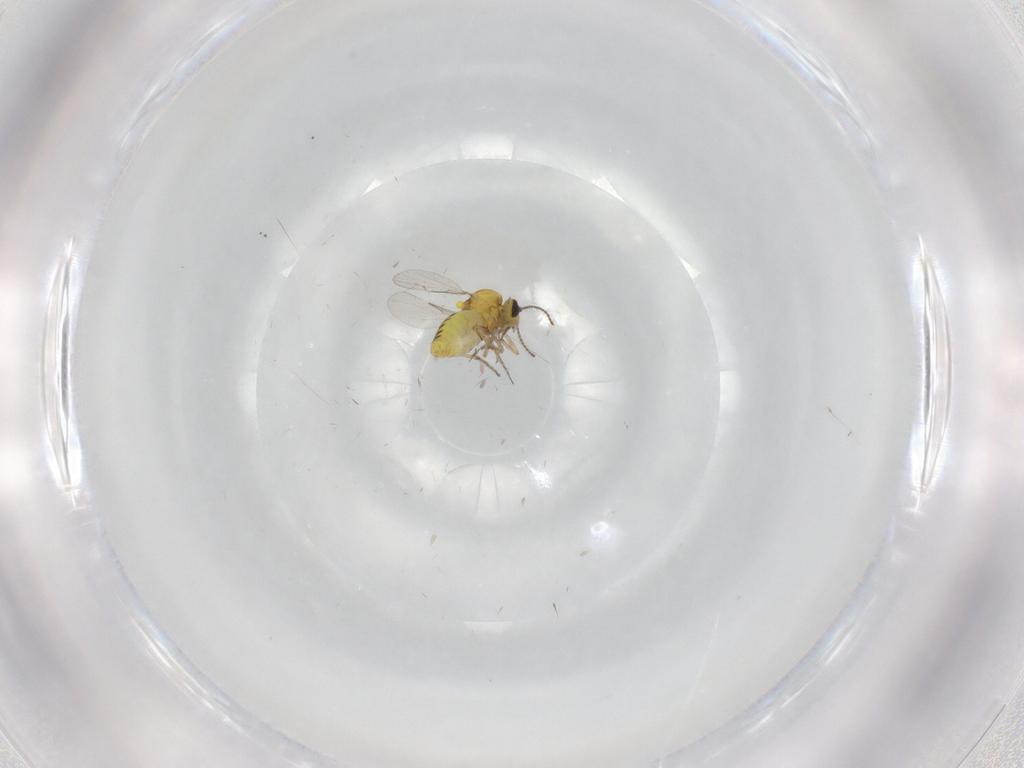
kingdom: Animalia
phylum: Arthropoda
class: Insecta
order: Diptera
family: Ceratopogonidae
